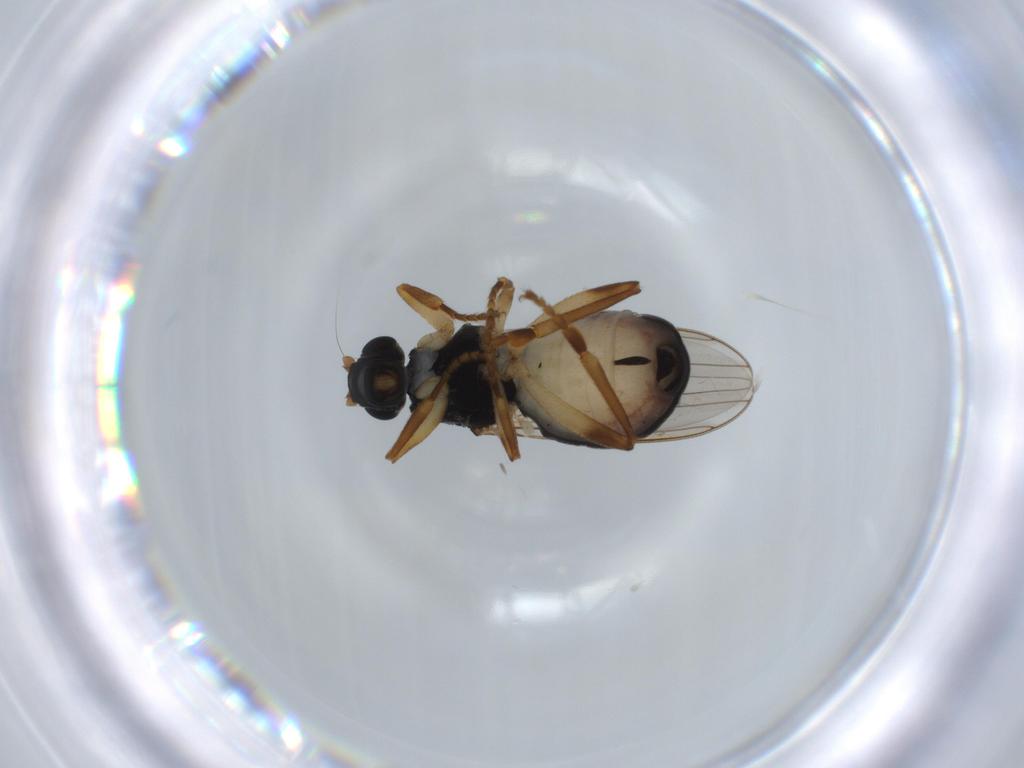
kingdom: Animalia
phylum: Arthropoda
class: Insecta
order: Diptera
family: Sphaeroceridae
